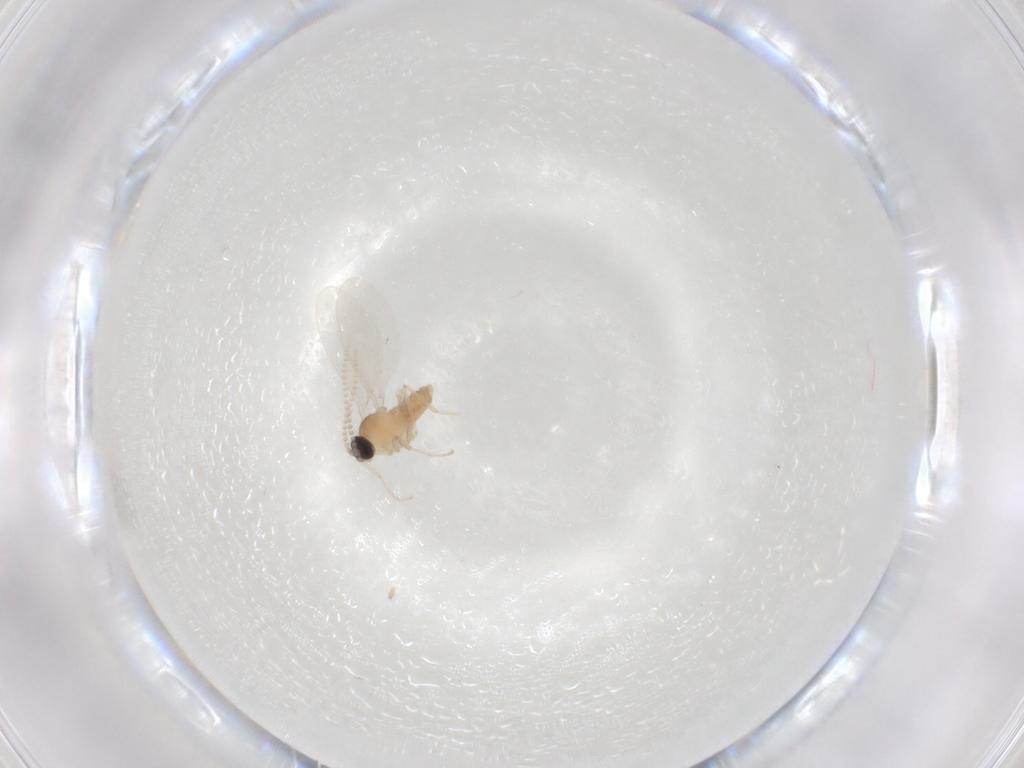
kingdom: Animalia
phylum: Arthropoda
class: Insecta
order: Diptera
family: Cecidomyiidae
